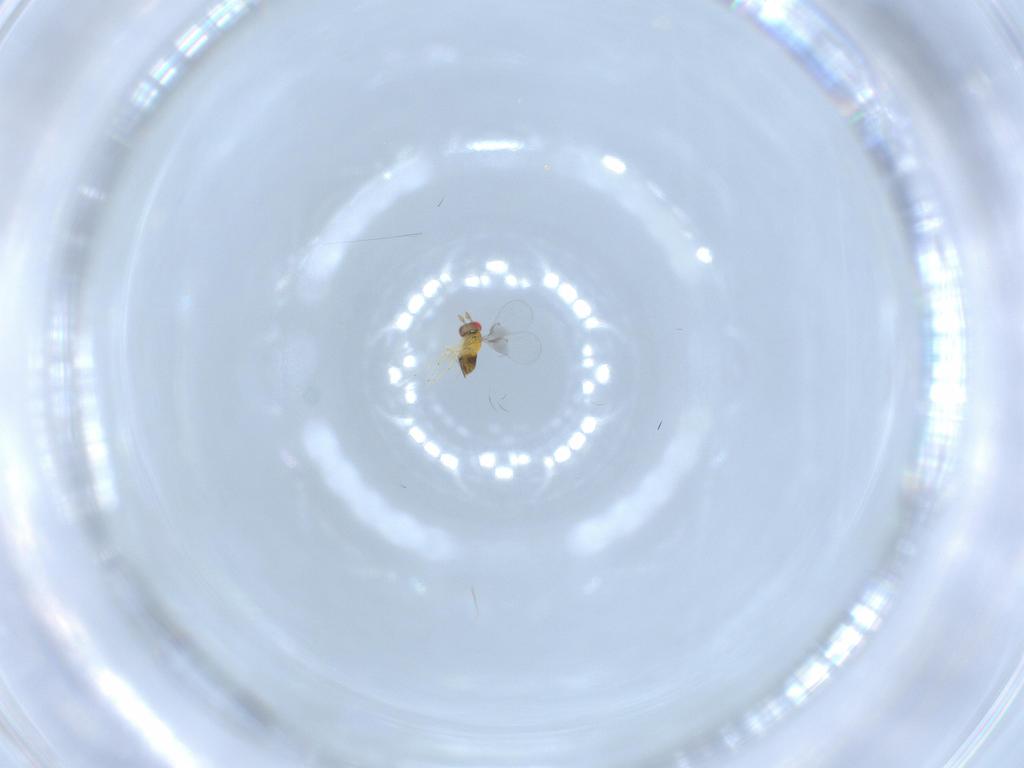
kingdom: Animalia
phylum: Arthropoda
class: Insecta
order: Hymenoptera
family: Trichogrammatidae
